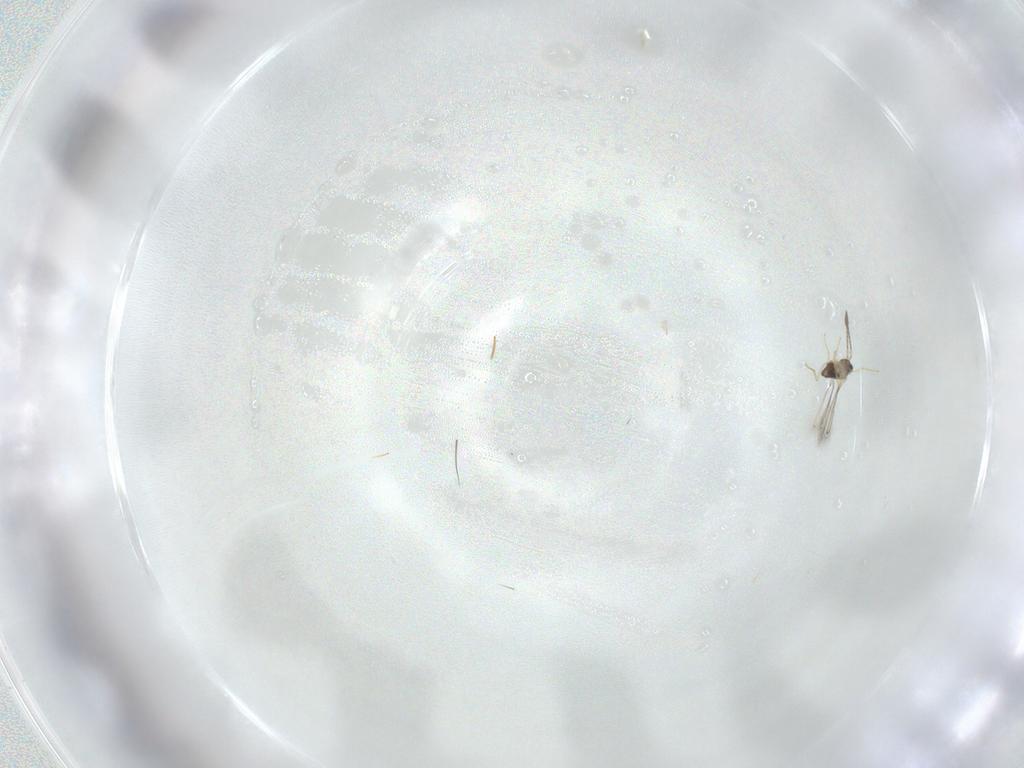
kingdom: Animalia
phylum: Arthropoda
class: Insecta
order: Hymenoptera
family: Mymaridae
